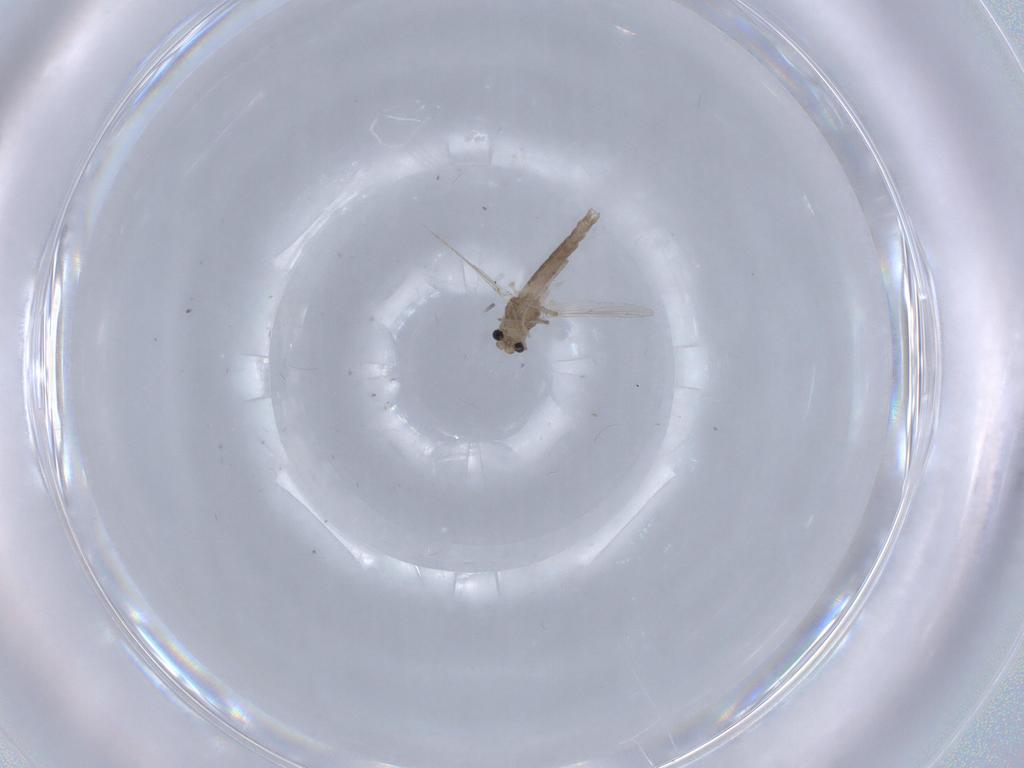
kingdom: Animalia
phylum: Arthropoda
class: Insecta
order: Diptera
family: Chironomidae
